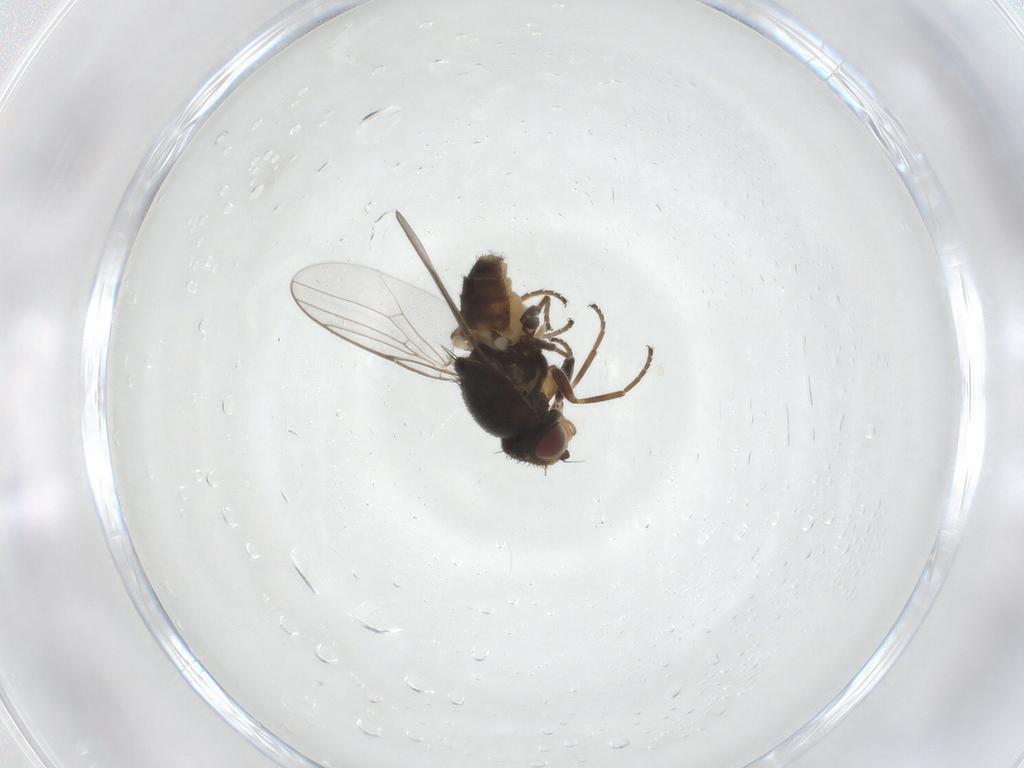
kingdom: Animalia
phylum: Arthropoda
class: Insecta
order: Diptera
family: Chloropidae
